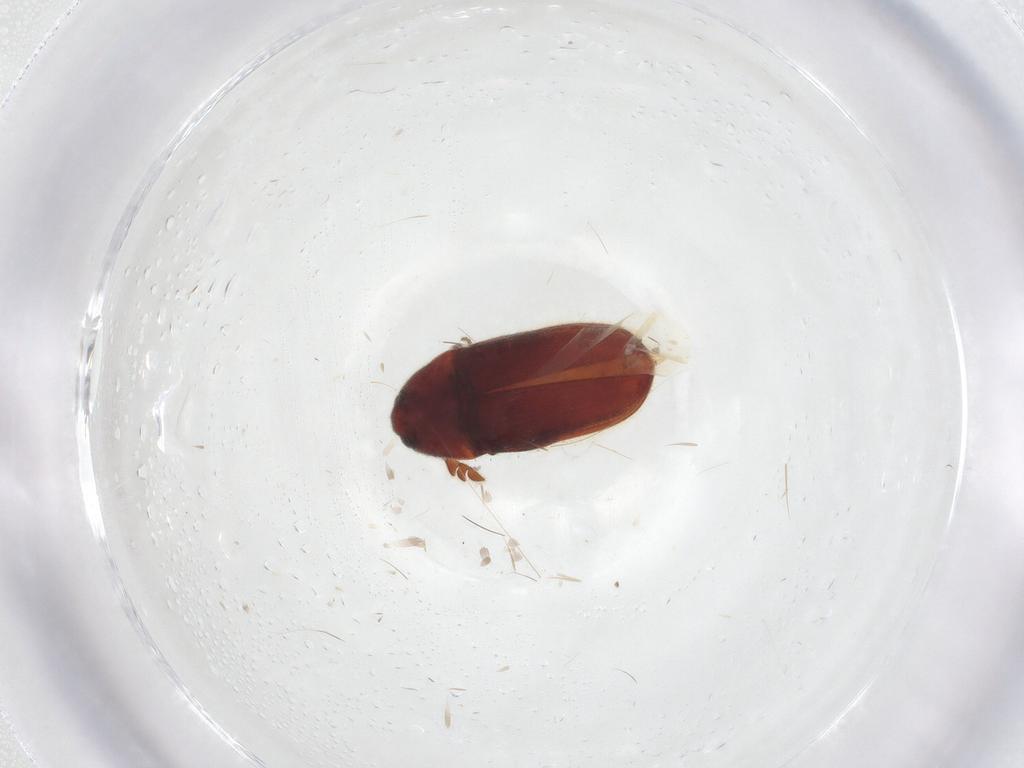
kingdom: Animalia
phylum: Arthropoda
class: Insecta
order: Coleoptera
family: Throscidae
